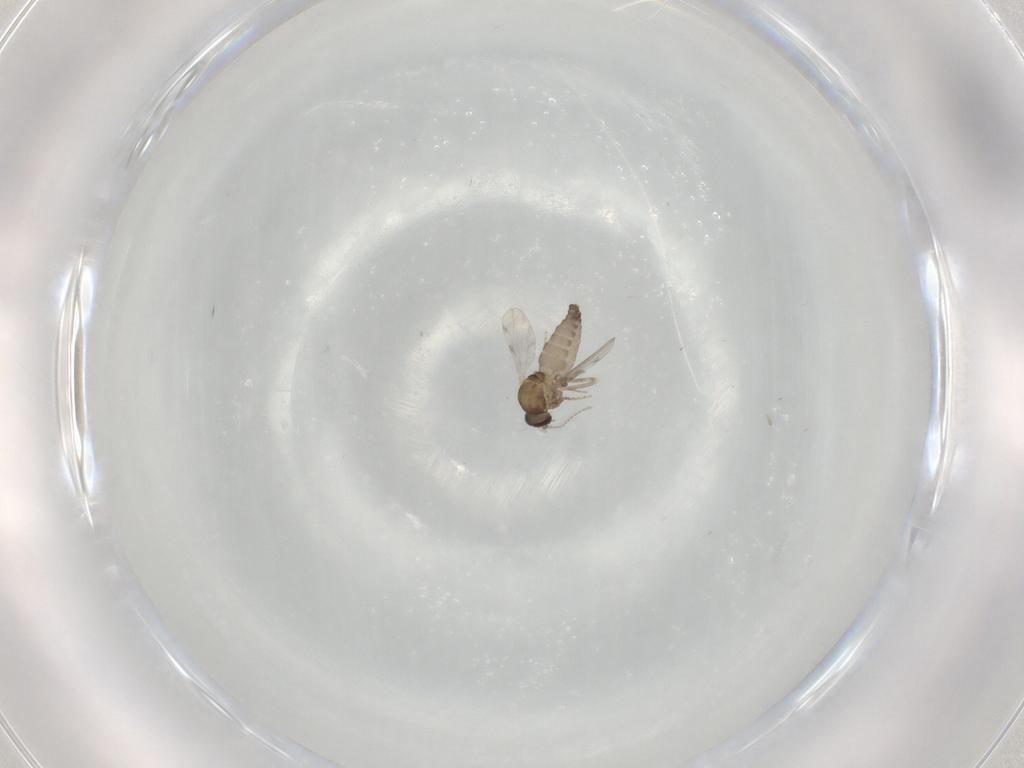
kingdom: Animalia
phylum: Arthropoda
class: Insecta
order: Diptera
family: Ceratopogonidae
